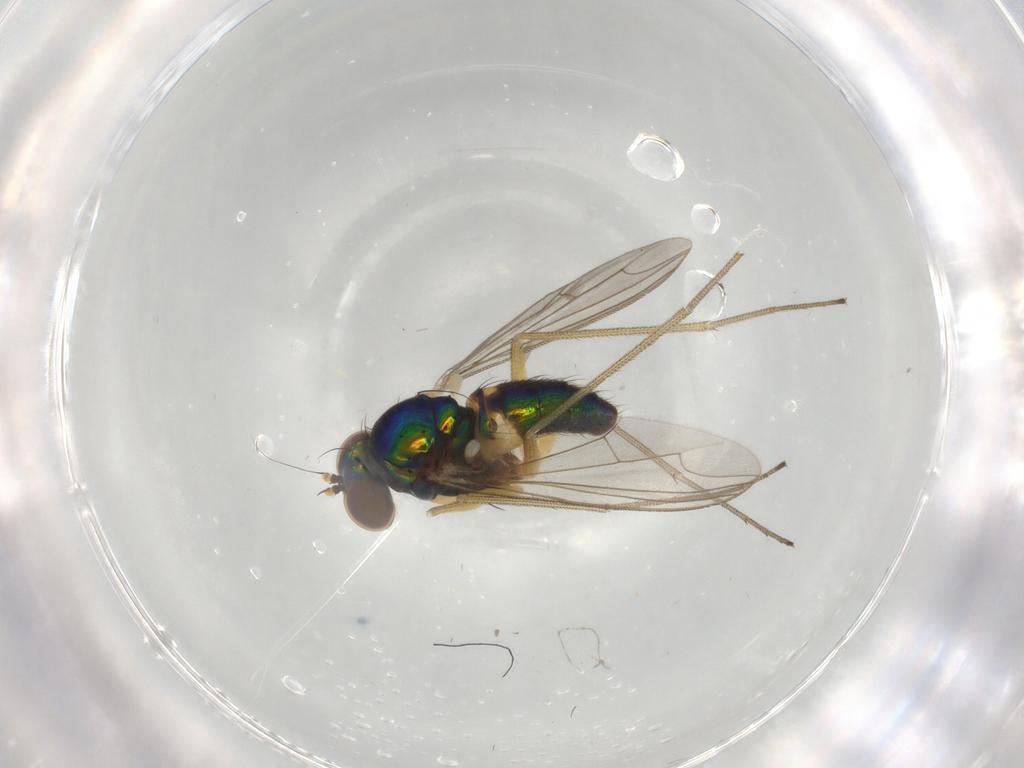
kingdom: Animalia
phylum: Arthropoda
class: Insecta
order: Diptera
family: Dolichopodidae
